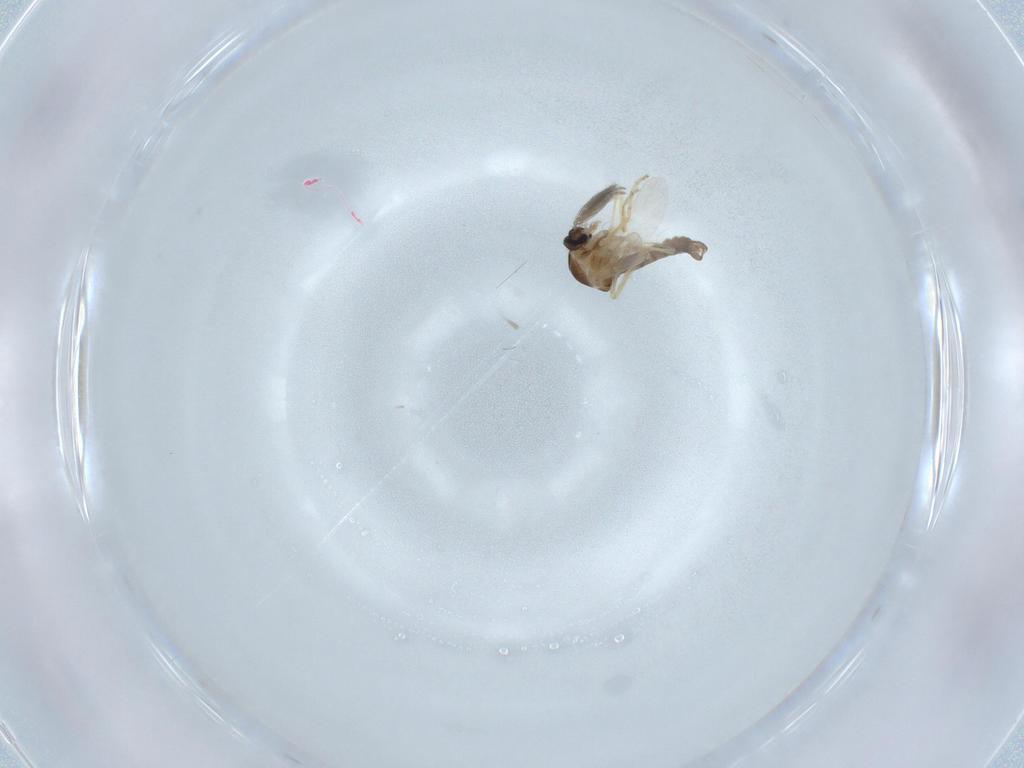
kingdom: Animalia
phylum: Arthropoda
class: Insecta
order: Diptera
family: Ceratopogonidae
